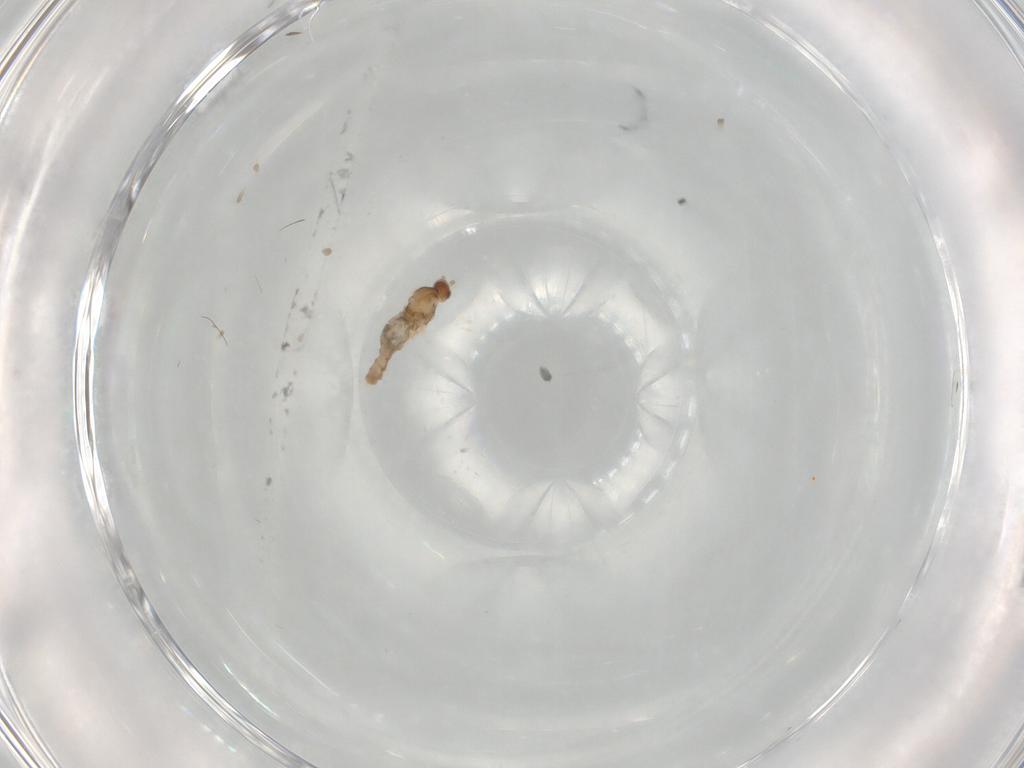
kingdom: Animalia
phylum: Arthropoda
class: Insecta
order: Diptera
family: Cecidomyiidae
